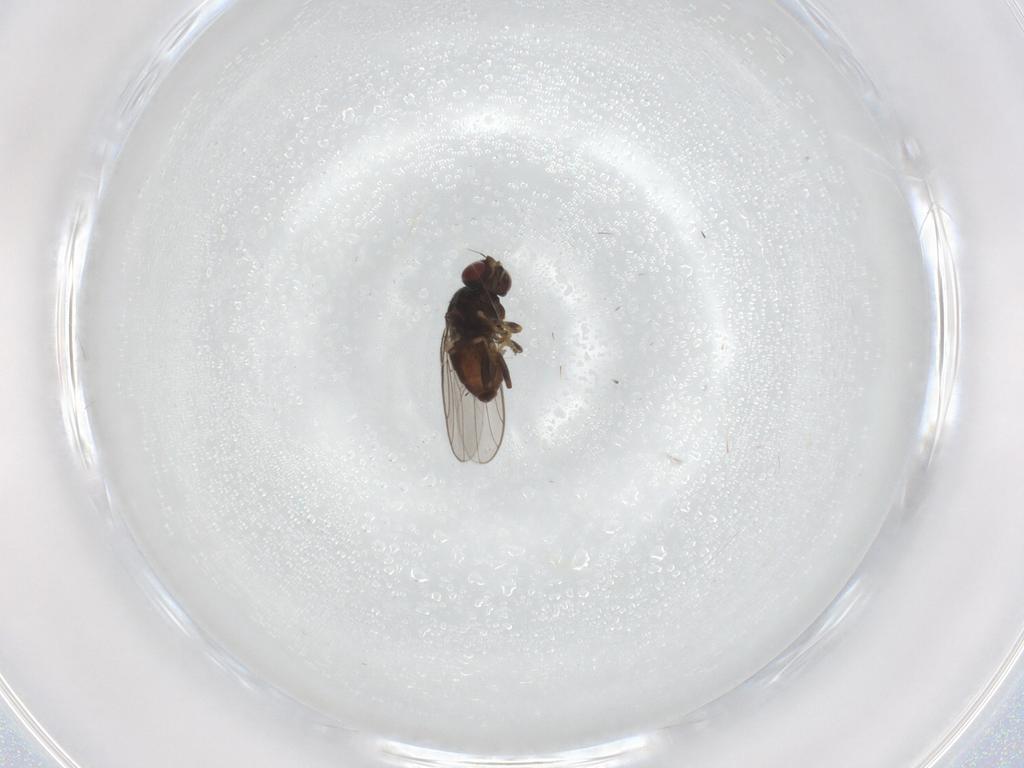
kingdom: Animalia
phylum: Arthropoda
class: Insecta
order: Diptera
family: Chloropidae
